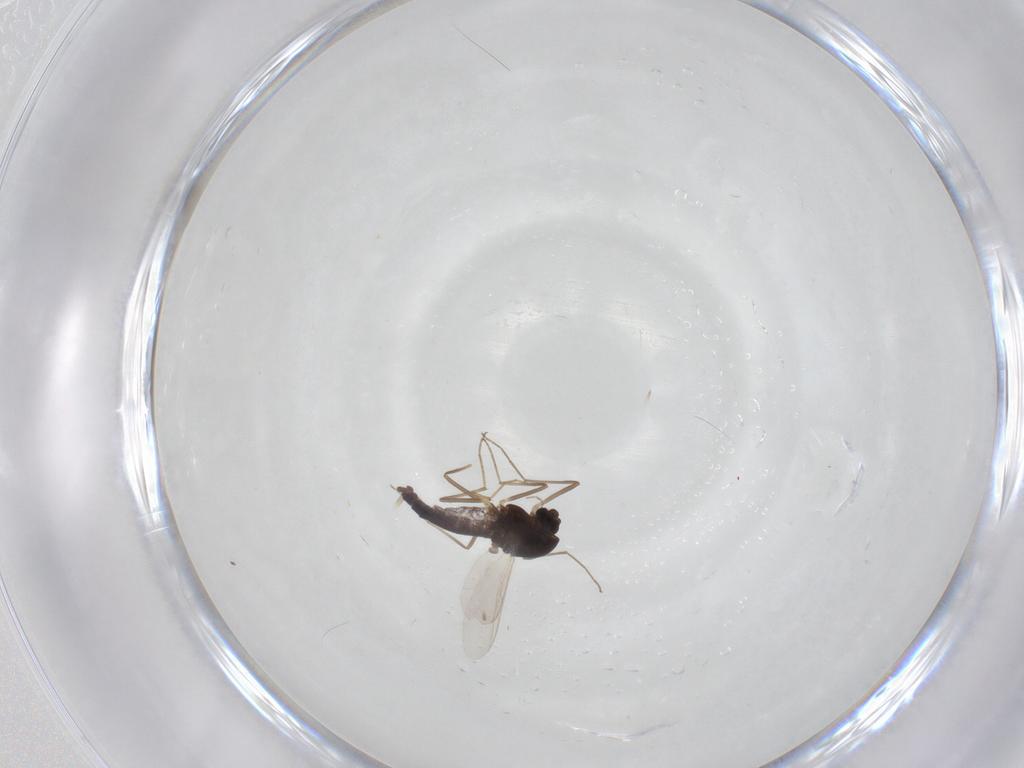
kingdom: Animalia
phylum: Arthropoda
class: Insecta
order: Diptera
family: Chironomidae
